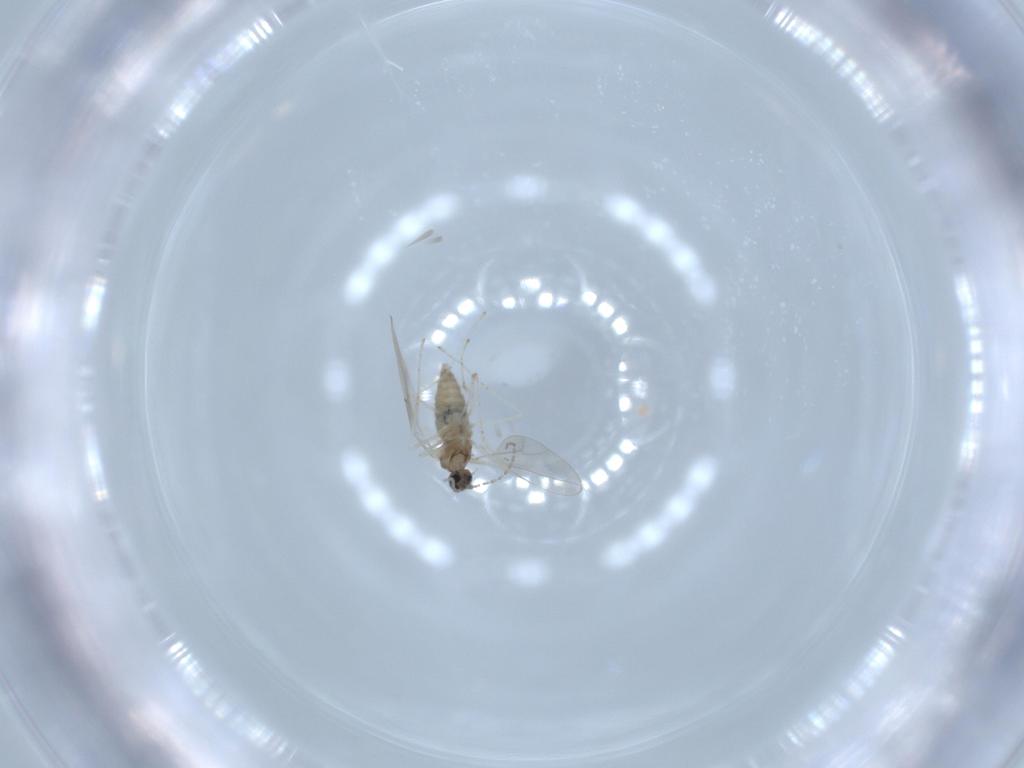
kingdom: Animalia
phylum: Arthropoda
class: Insecta
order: Diptera
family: Cecidomyiidae
